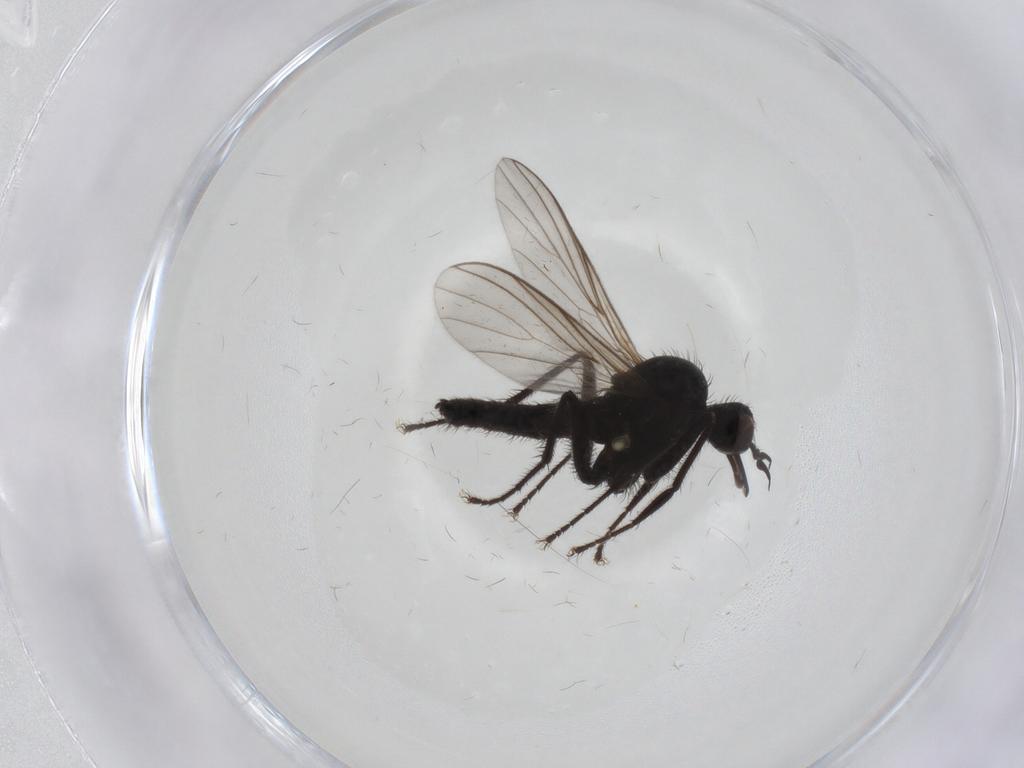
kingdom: Animalia
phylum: Arthropoda
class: Insecta
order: Diptera
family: Empididae
